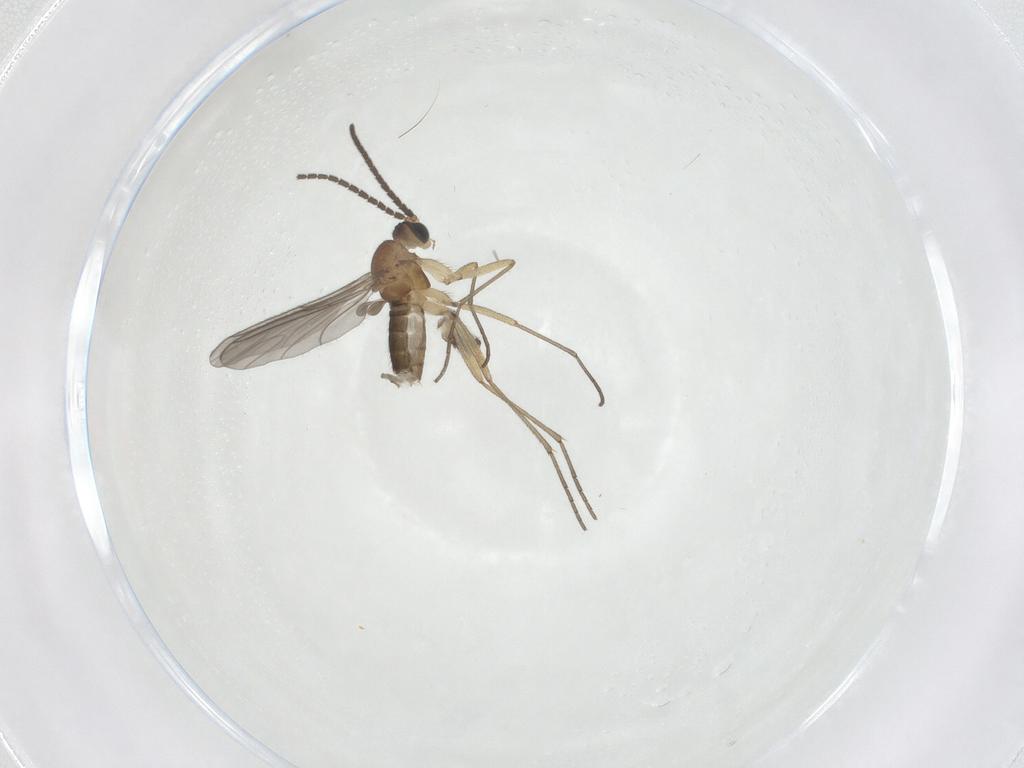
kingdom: Animalia
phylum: Arthropoda
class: Insecta
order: Diptera
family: Sciaridae
